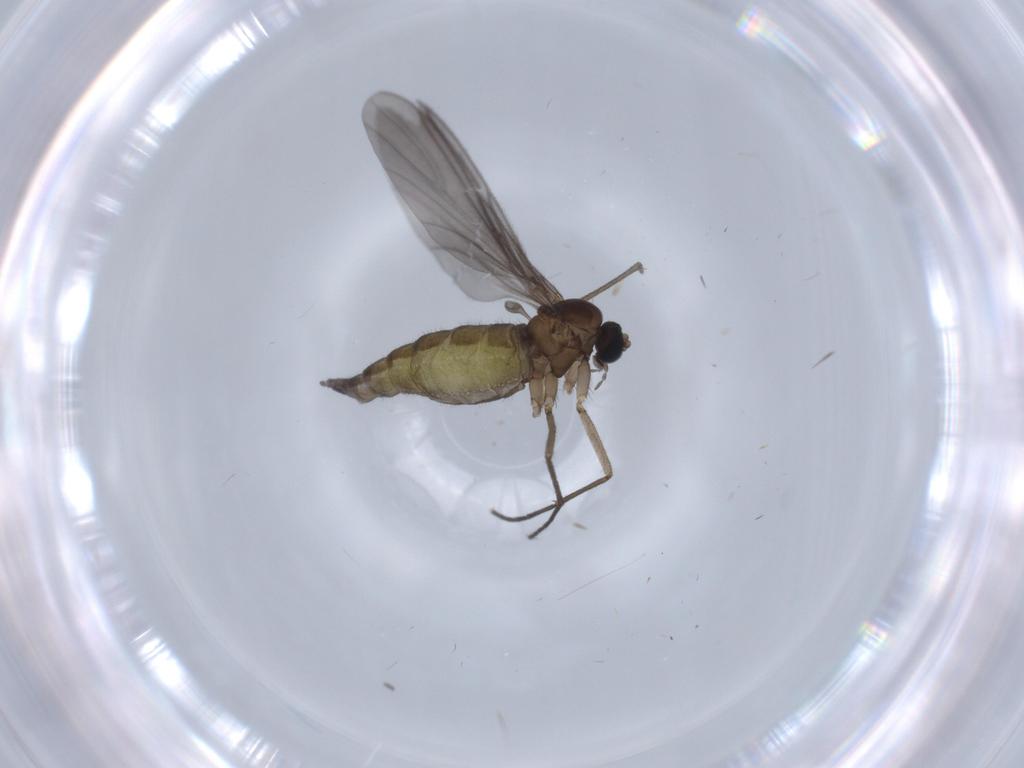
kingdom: Animalia
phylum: Arthropoda
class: Insecta
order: Diptera
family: Sciaridae
